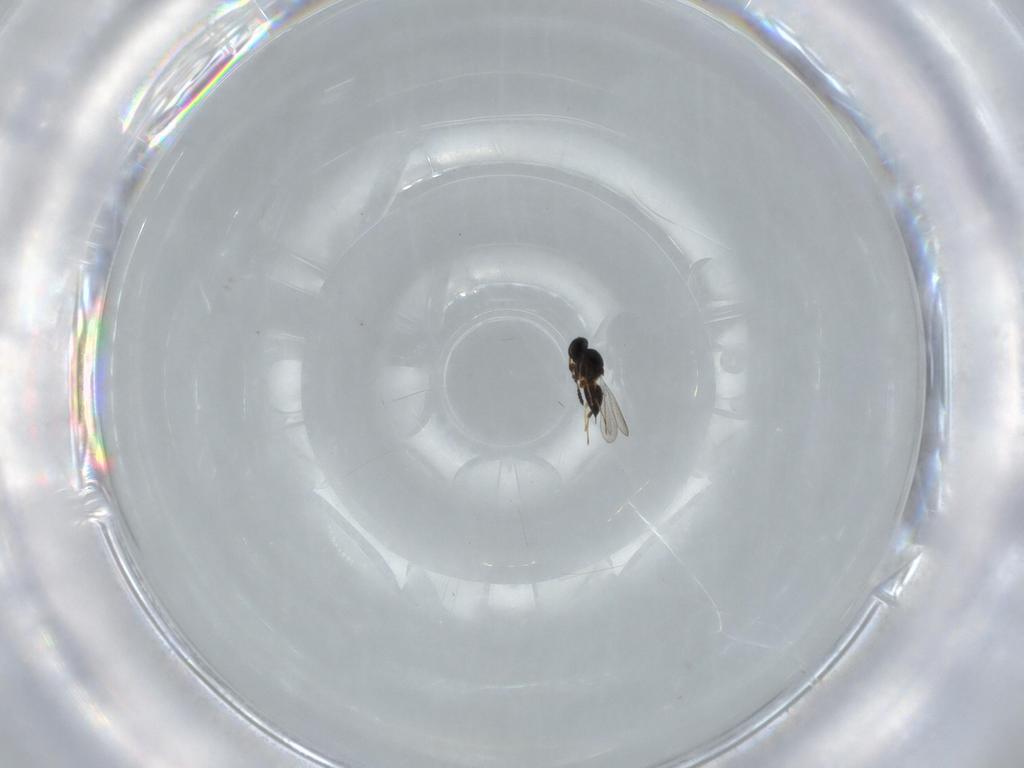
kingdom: Animalia
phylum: Arthropoda
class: Insecta
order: Hymenoptera
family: Platygastridae
